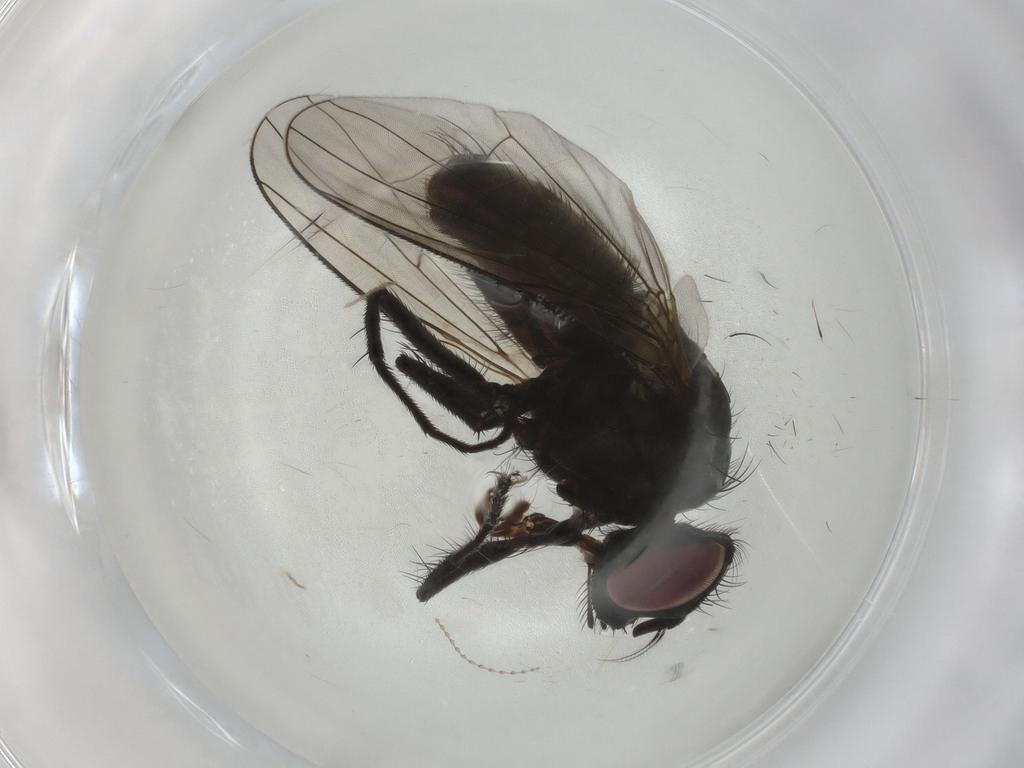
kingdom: Animalia
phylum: Arthropoda
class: Insecta
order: Diptera
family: Muscidae
